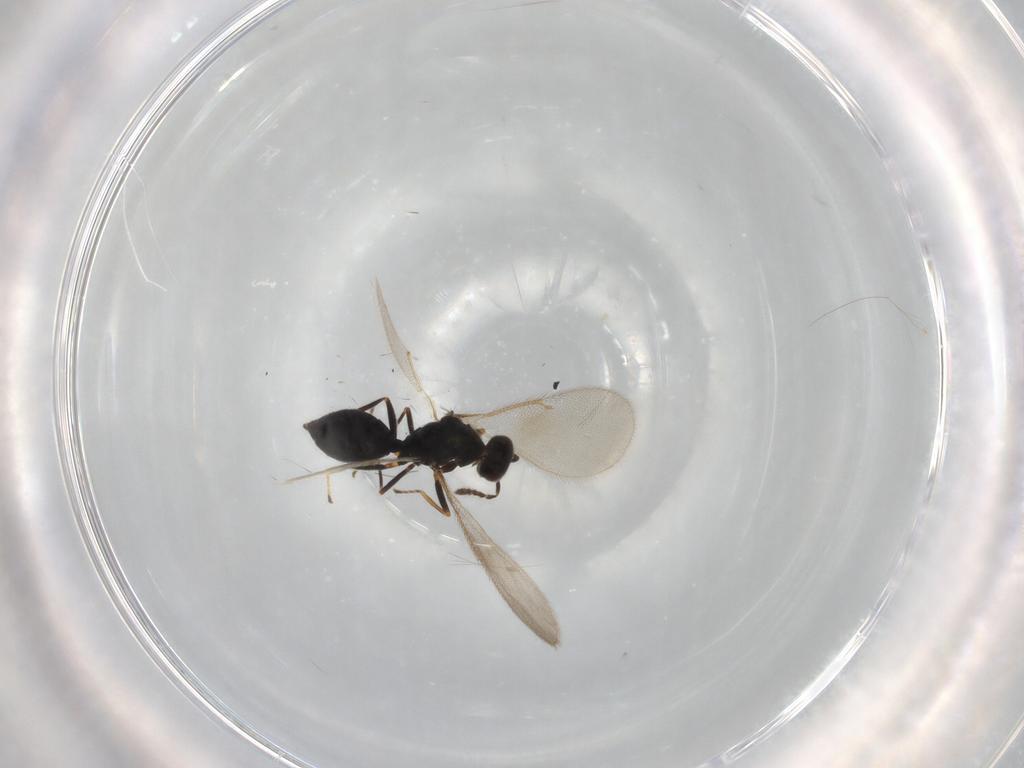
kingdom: Animalia
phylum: Arthropoda
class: Insecta
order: Hymenoptera
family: Eulophidae
